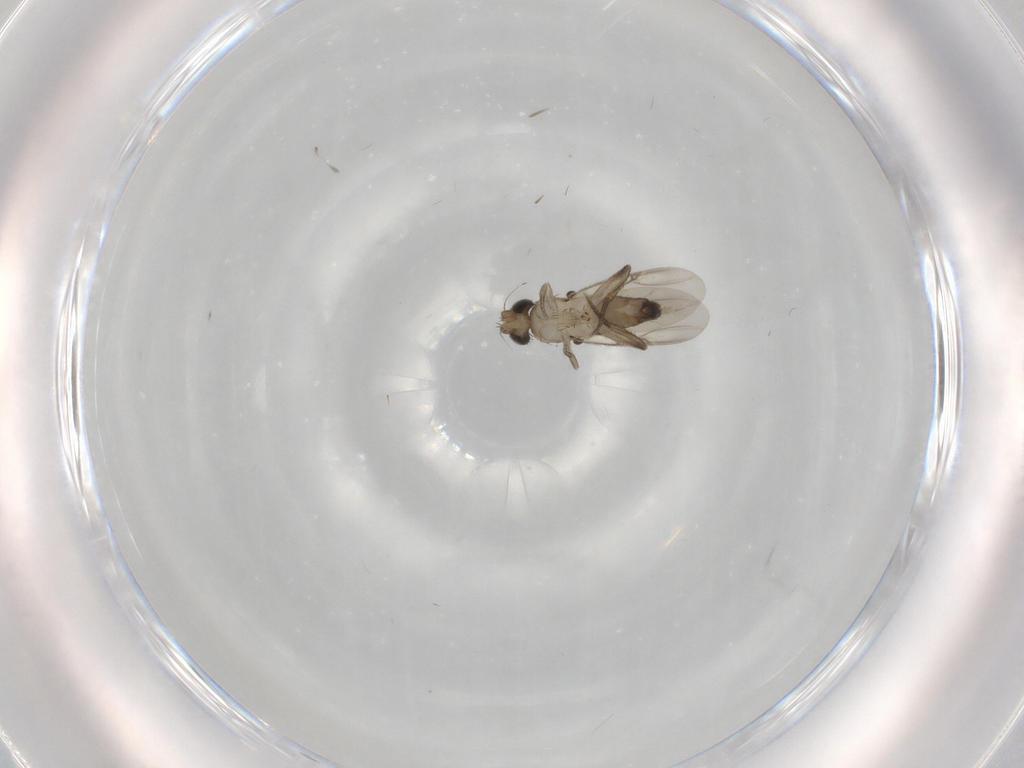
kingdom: Animalia
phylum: Arthropoda
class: Insecta
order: Diptera
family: Phoridae
